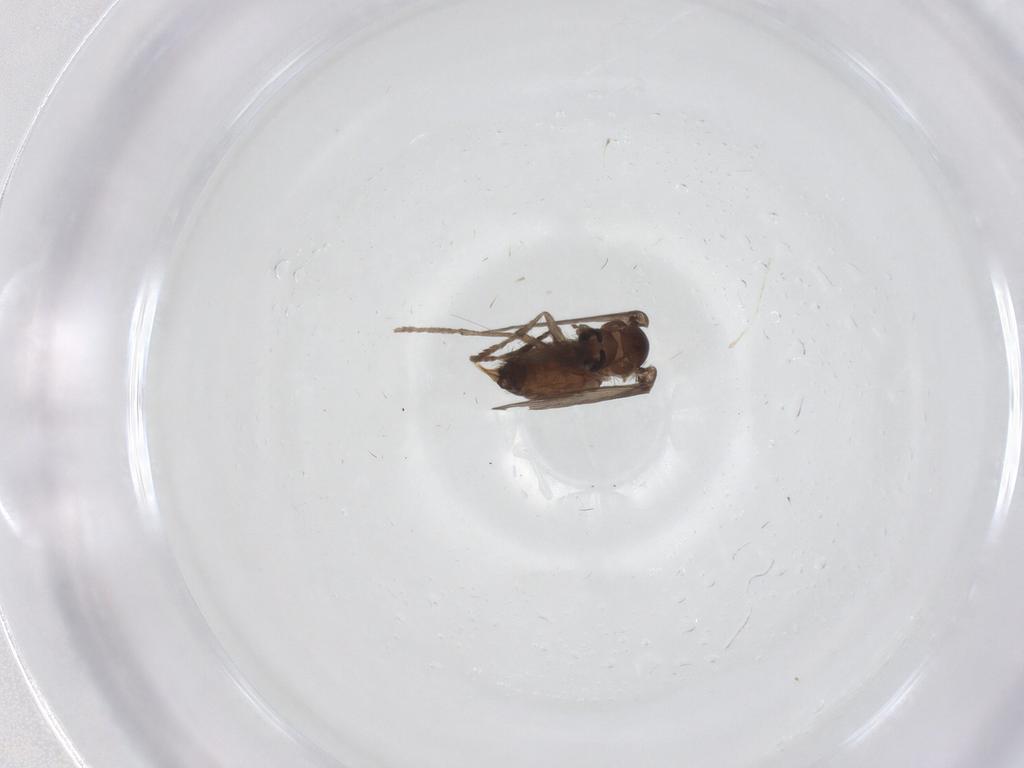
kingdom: Animalia
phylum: Arthropoda
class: Insecta
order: Diptera
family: Psychodidae
